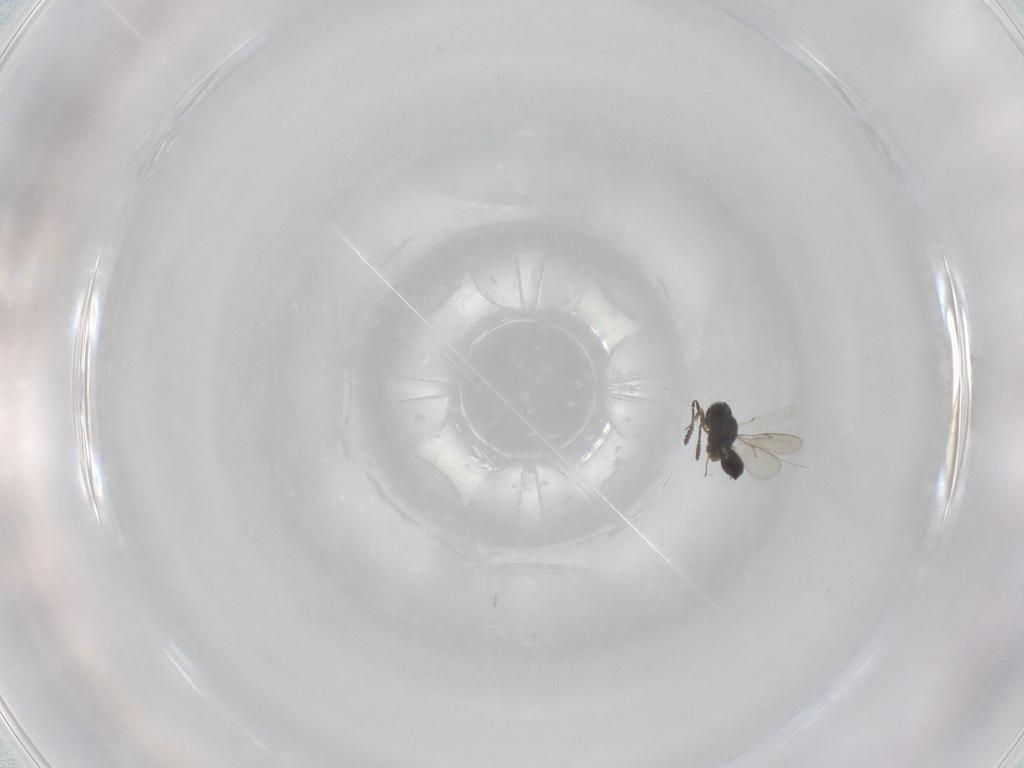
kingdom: Animalia
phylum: Arthropoda
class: Insecta
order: Hymenoptera
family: Scelionidae
